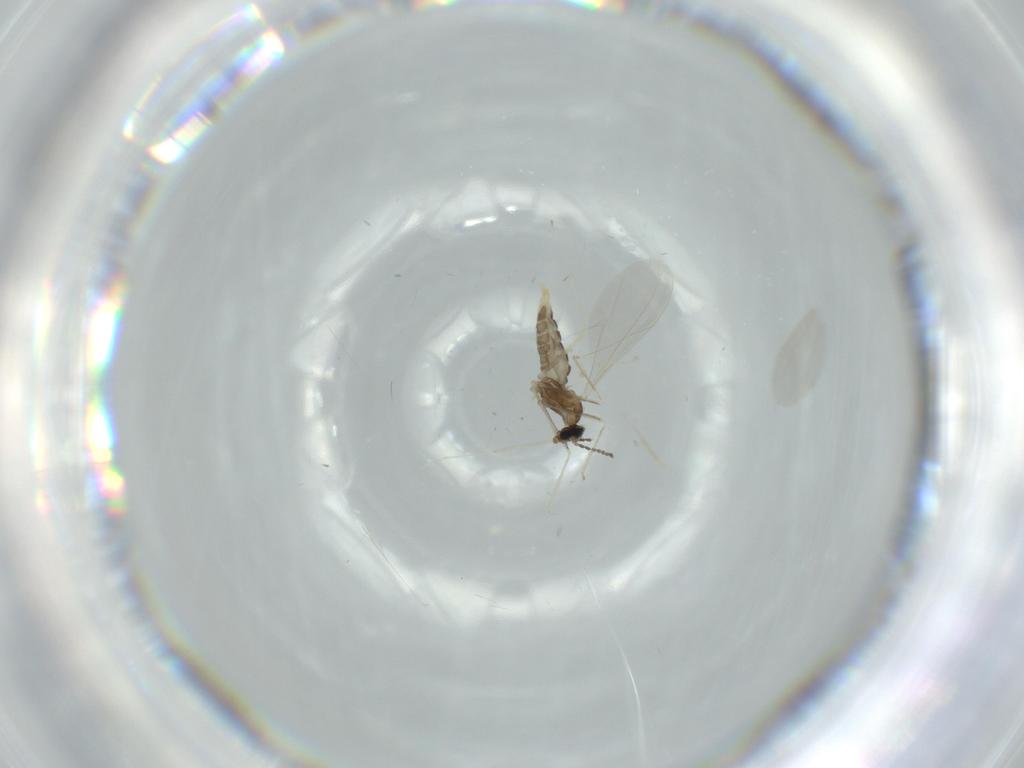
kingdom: Animalia
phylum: Arthropoda
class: Insecta
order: Diptera
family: Cecidomyiidae
